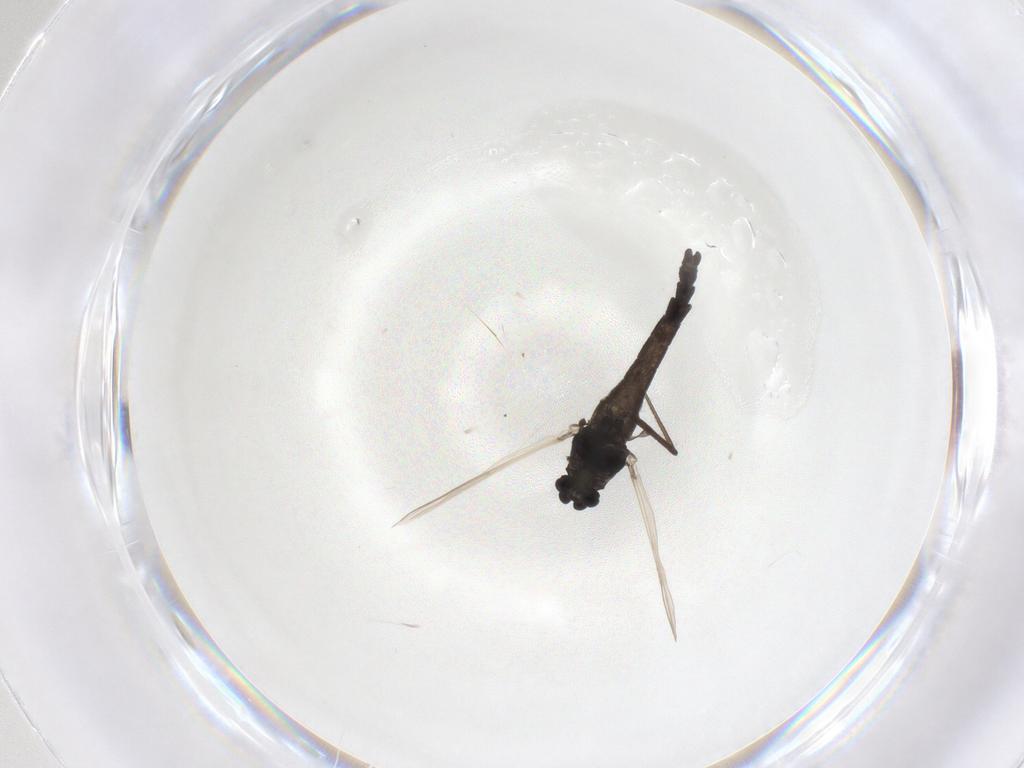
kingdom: Animalia
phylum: Arthropoda
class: Insecta
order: Diptera
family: Chironomidae
